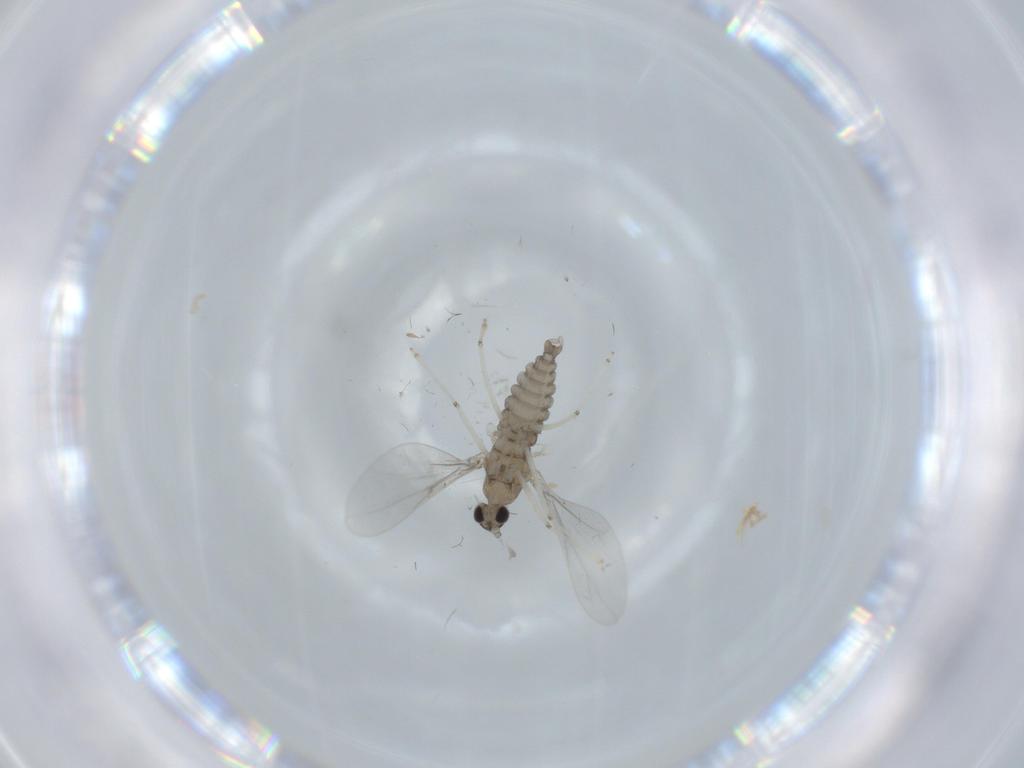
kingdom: Animalia
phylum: Arthropoda
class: Insecta
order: Diptera
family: Cecidomyiidae
